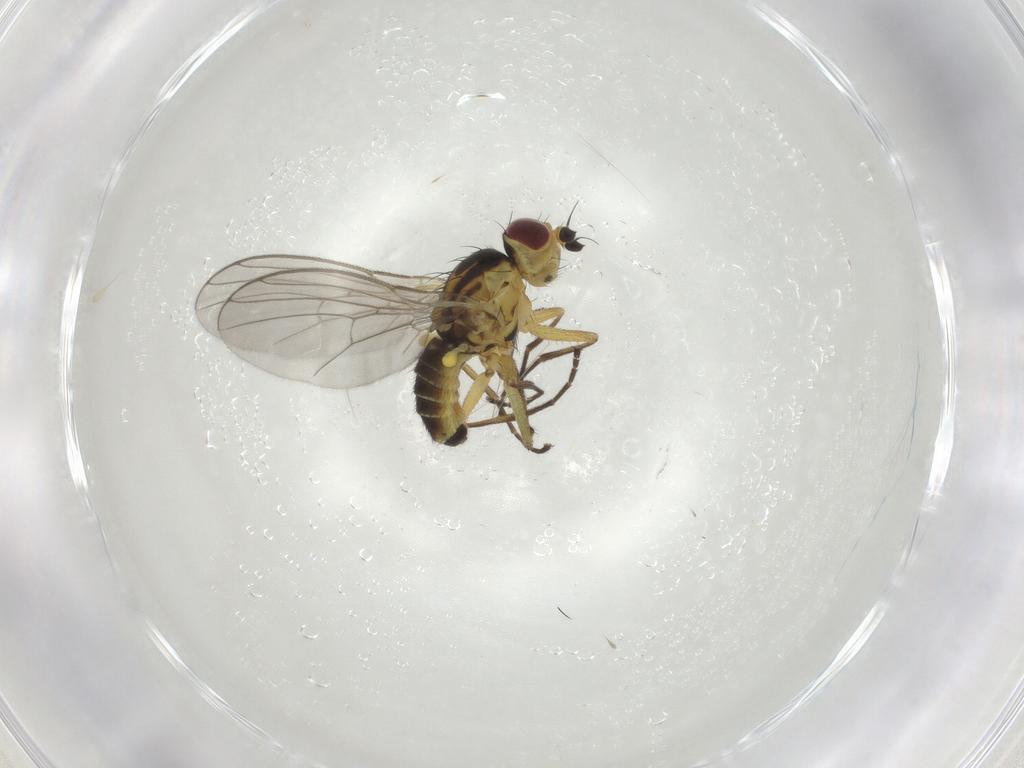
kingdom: Animalia
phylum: Arthropoda
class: Insecta
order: Diptera
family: Agromyzidae
